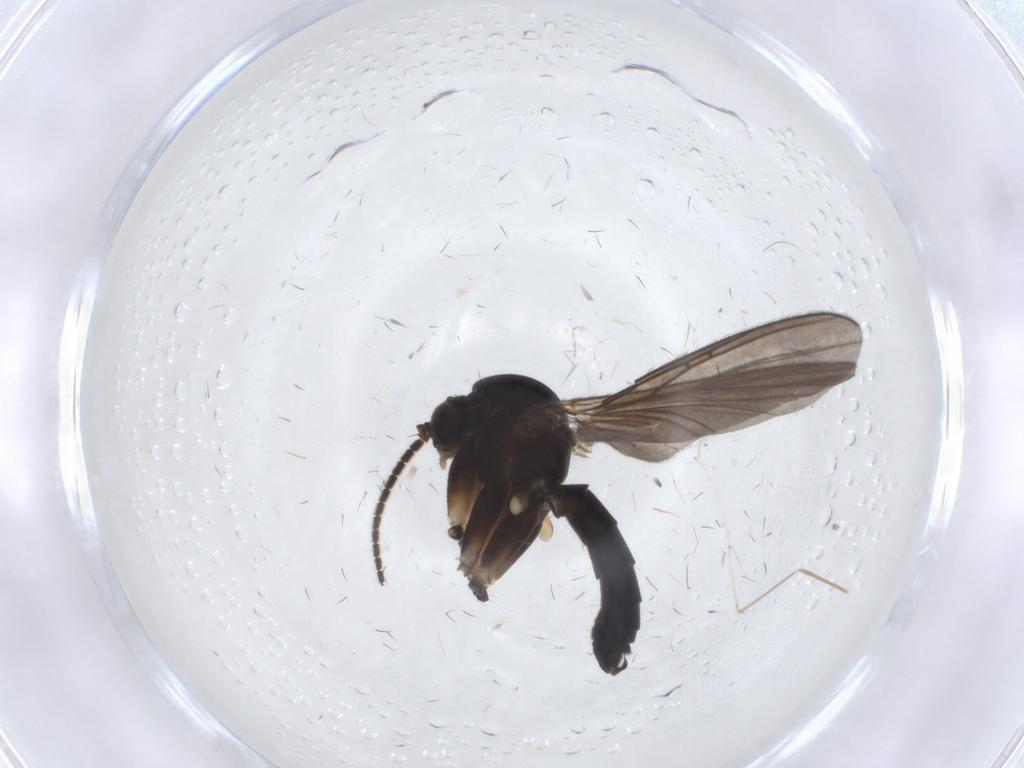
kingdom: Animalia
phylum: Arthropoda
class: Insecta
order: Diptera
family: Mycetophilidae
